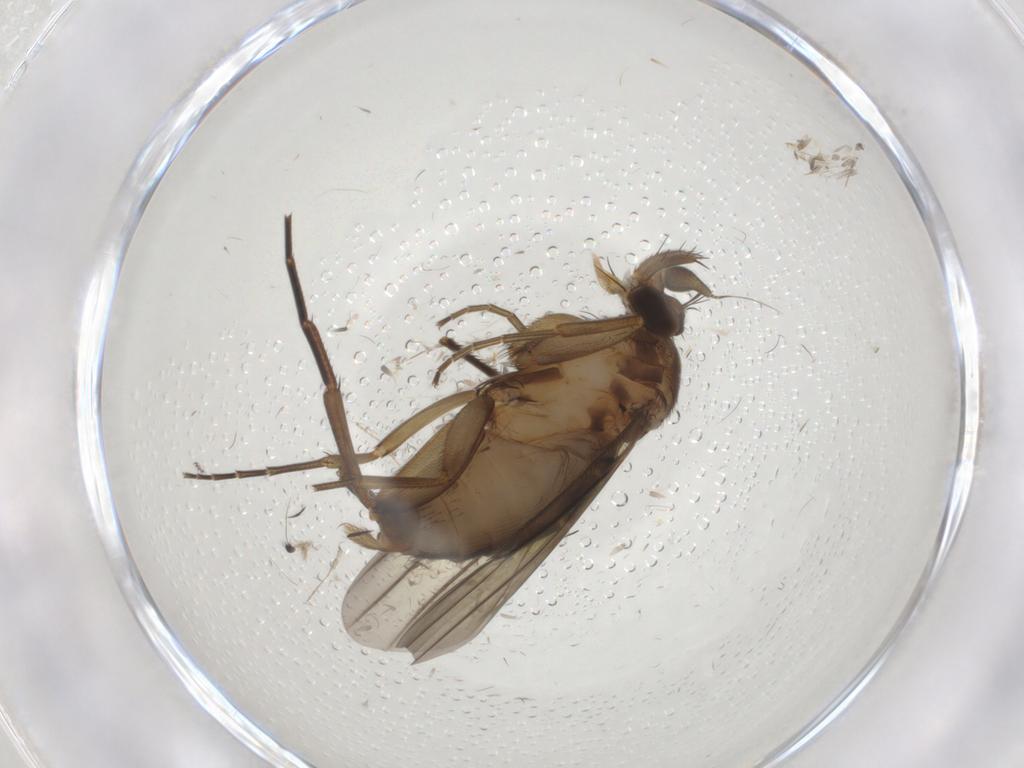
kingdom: Animalia
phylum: Arthropoda
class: Insecta
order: Diptera
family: Phoridae
